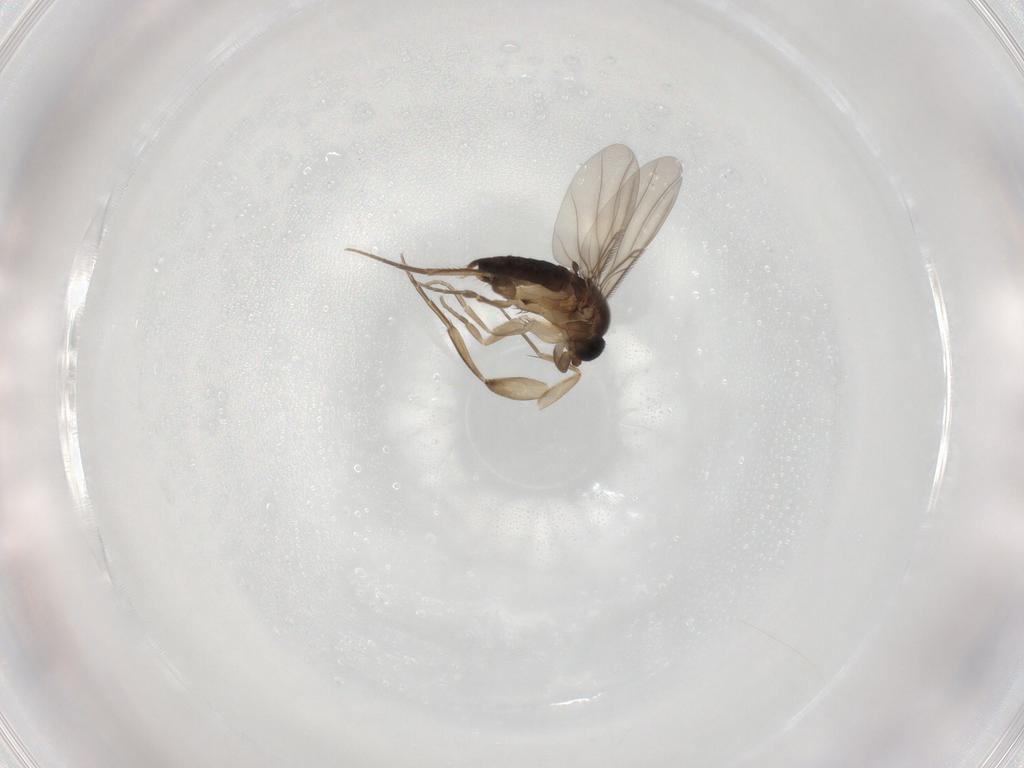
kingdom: Animalia
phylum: Arthropoda
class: Insecta
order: Diptera
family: Phoridae
